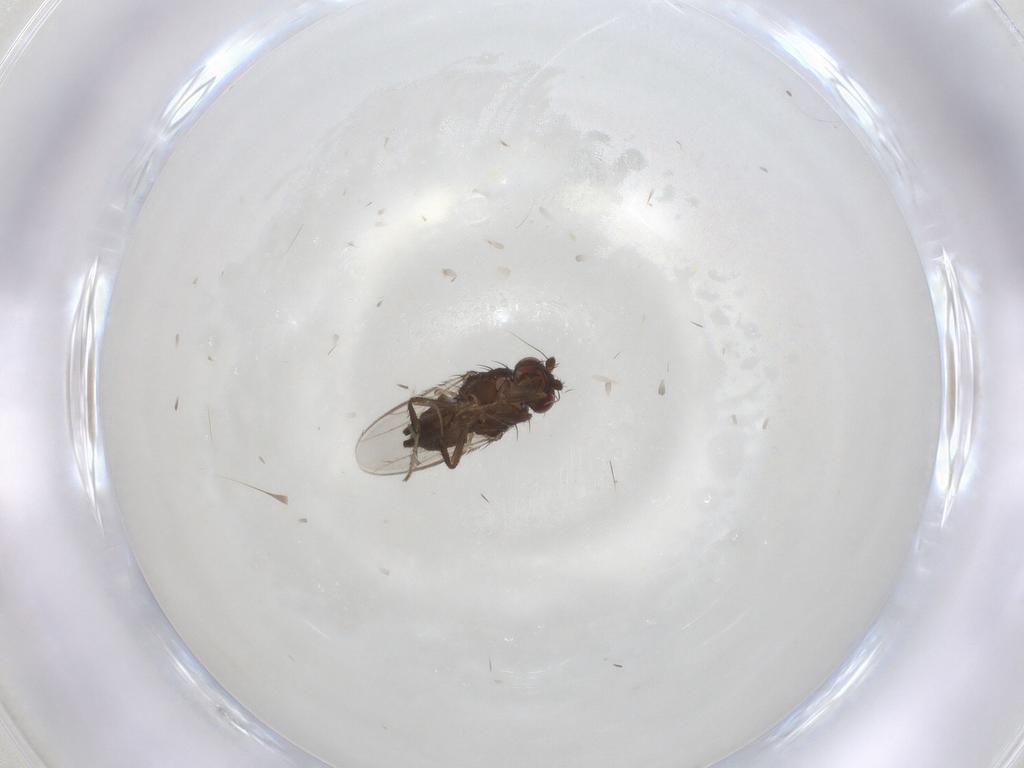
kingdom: Animalia
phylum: Arthropoda
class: Insecta
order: Diptera
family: Sphaeroceridae
